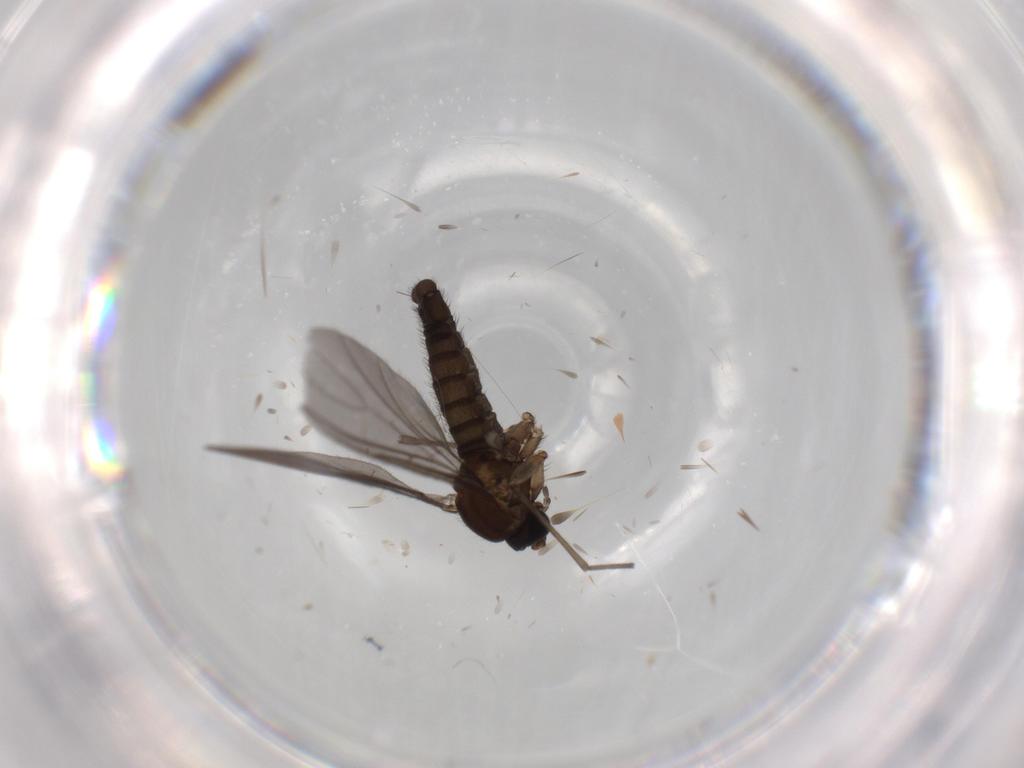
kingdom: Animalia
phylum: Arthropoda
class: Insecta
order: Diptera
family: Sciaridae
